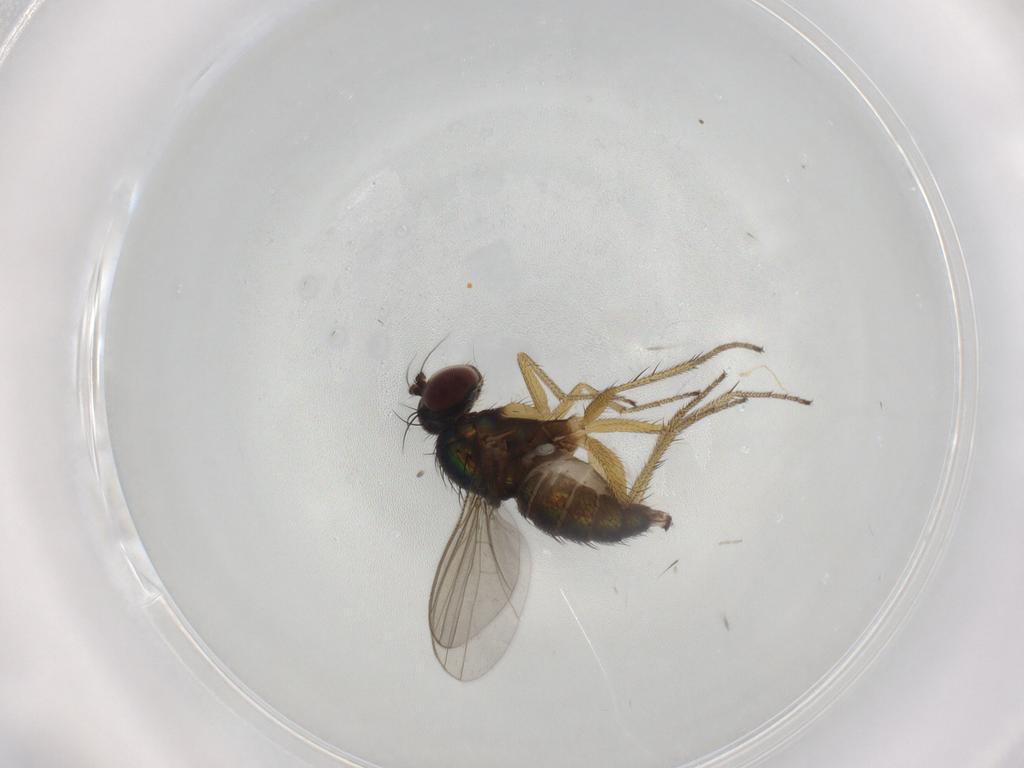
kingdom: Animalia
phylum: Arthropoda
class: Insecta
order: Diptera
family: Dolichopodidae
